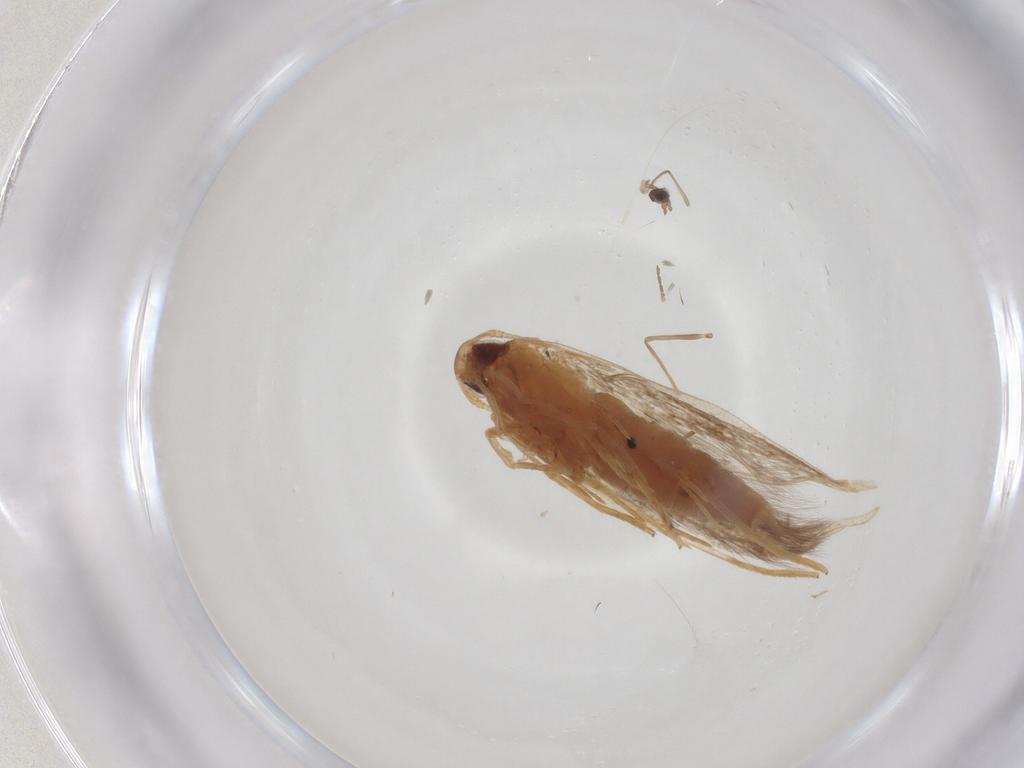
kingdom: Animalia
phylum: Arthropoda
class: Insecta
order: Lepidoptera
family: Cosmopterigidae
